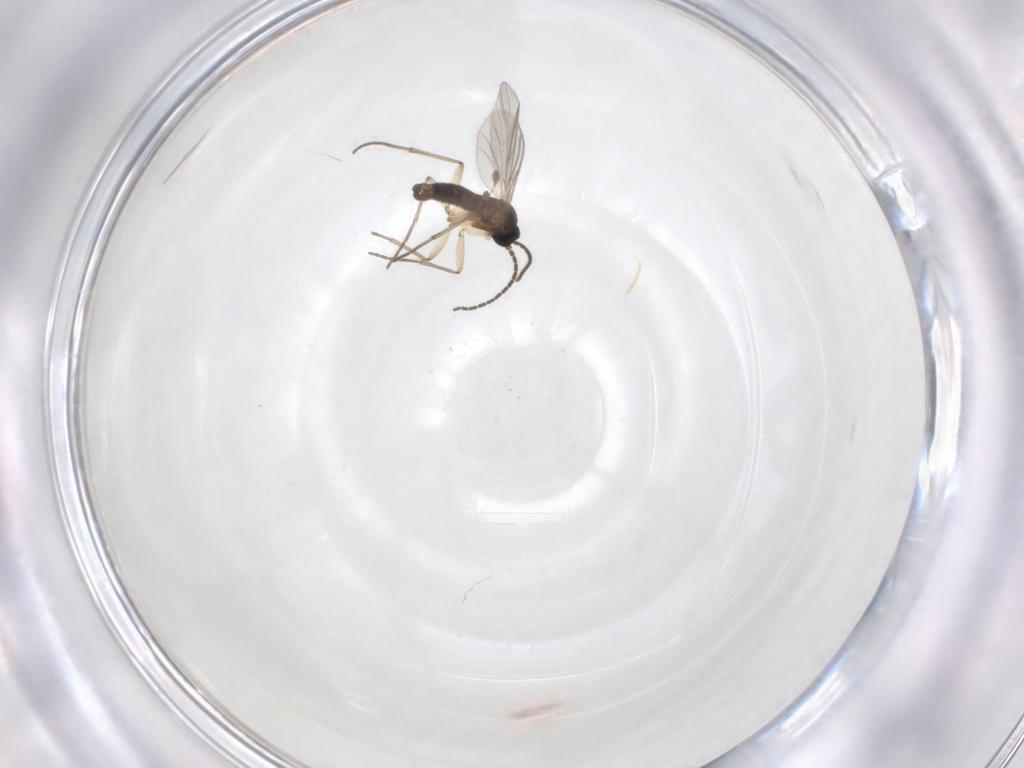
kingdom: Animalia
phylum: Arthropoda
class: Insecta
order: Diptera
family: Sciaridae
